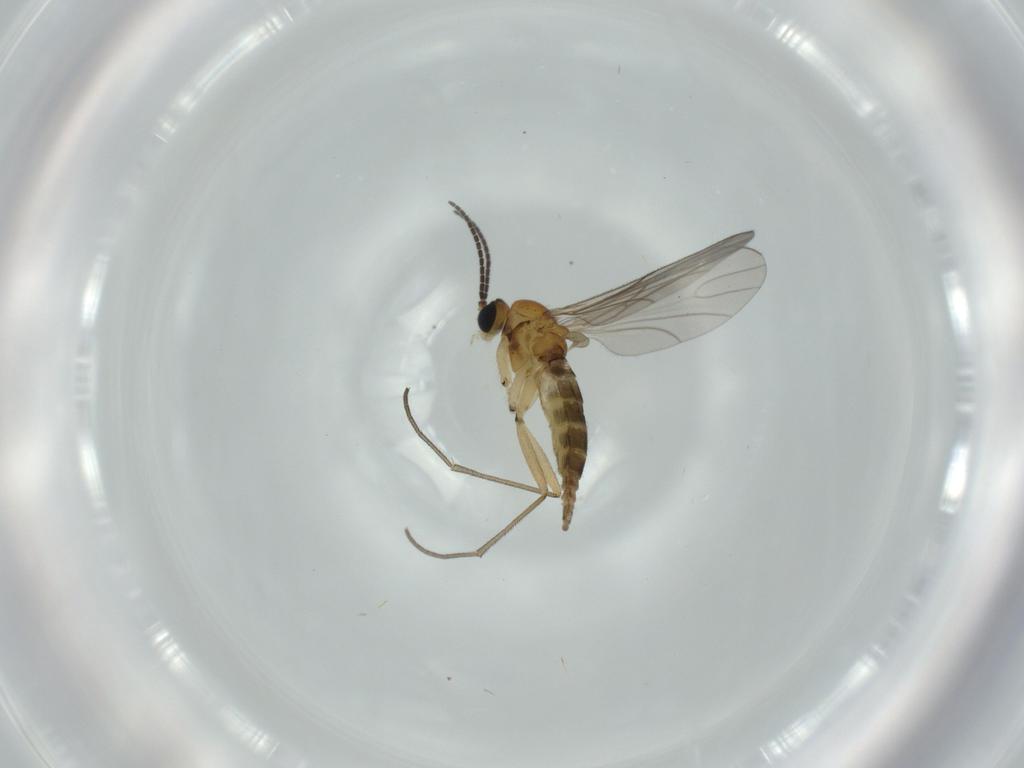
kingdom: Animalia
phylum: Arthropoda
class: Insecta
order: Diptera
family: Sciaridae
